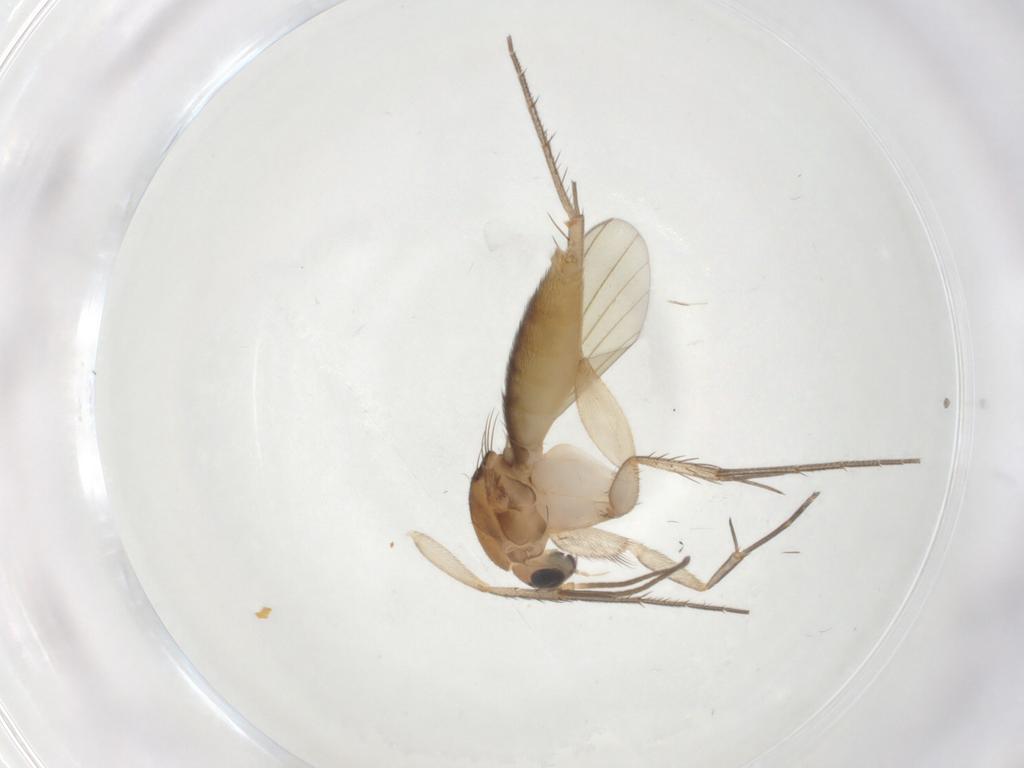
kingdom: Animalia
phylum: Arthropoda
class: Insecta
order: Diptera
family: Mycetophilidae
